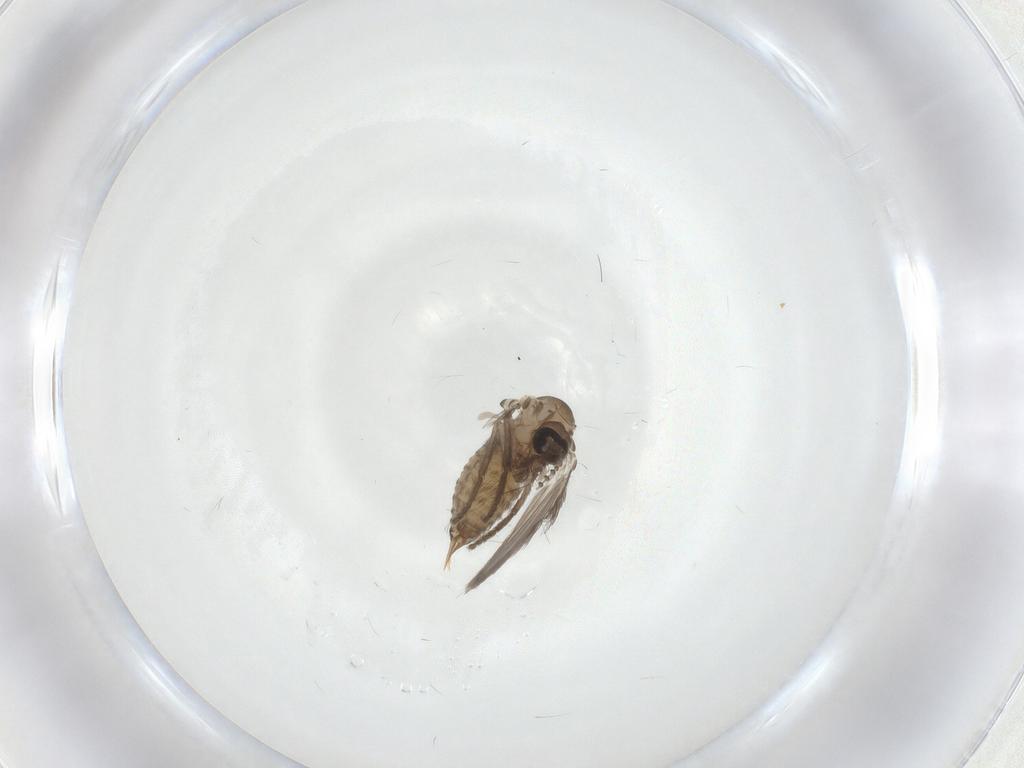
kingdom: Animalia
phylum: Arthropoda
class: Insecta
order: Diptera
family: Psychodidae
